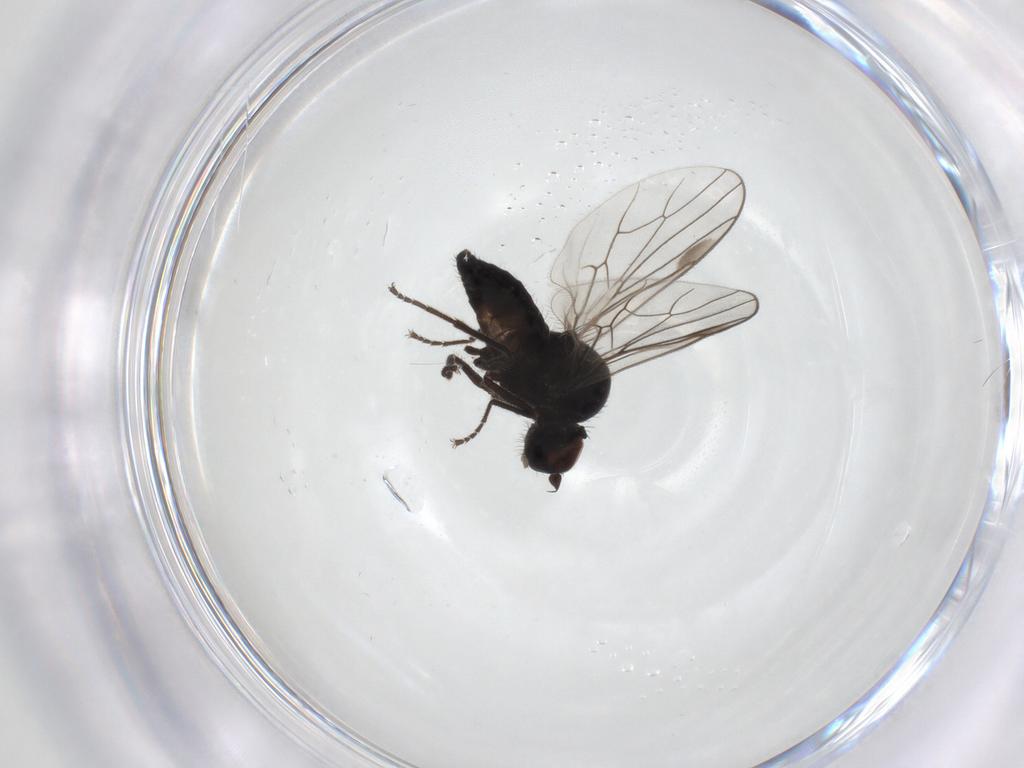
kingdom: Animalia
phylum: Arthropoda
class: Insecta
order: Diptera
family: Hybotidae
